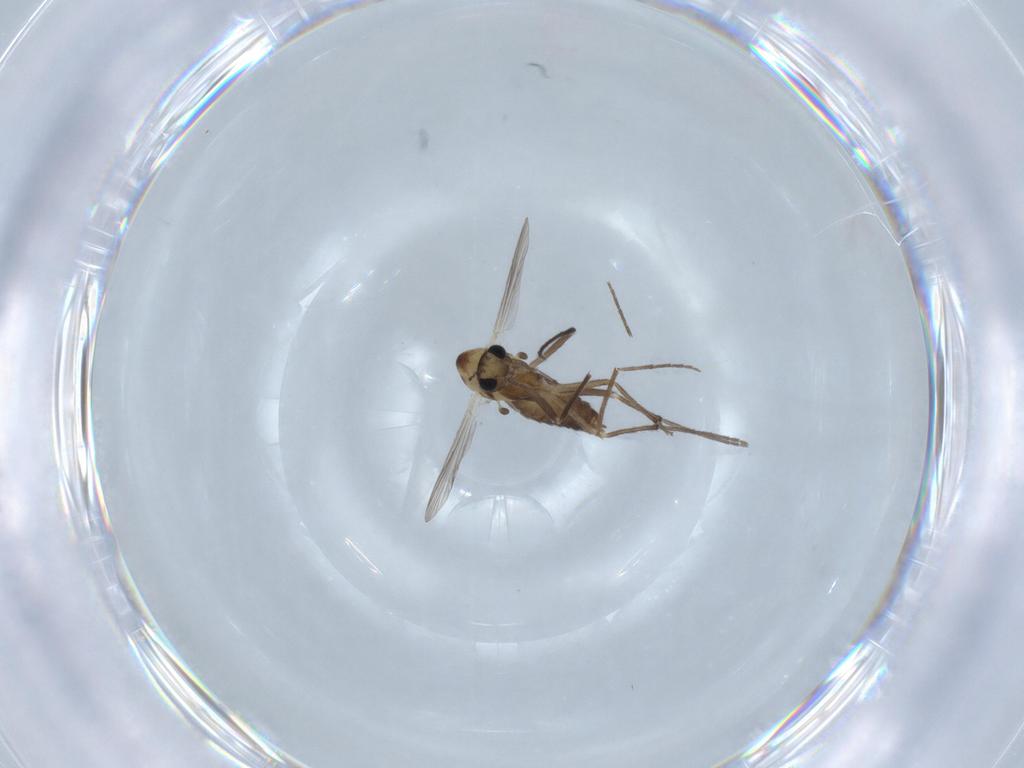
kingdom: Animalia
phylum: Arthropoda
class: Insecta
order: Diptera
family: Chironomidae
